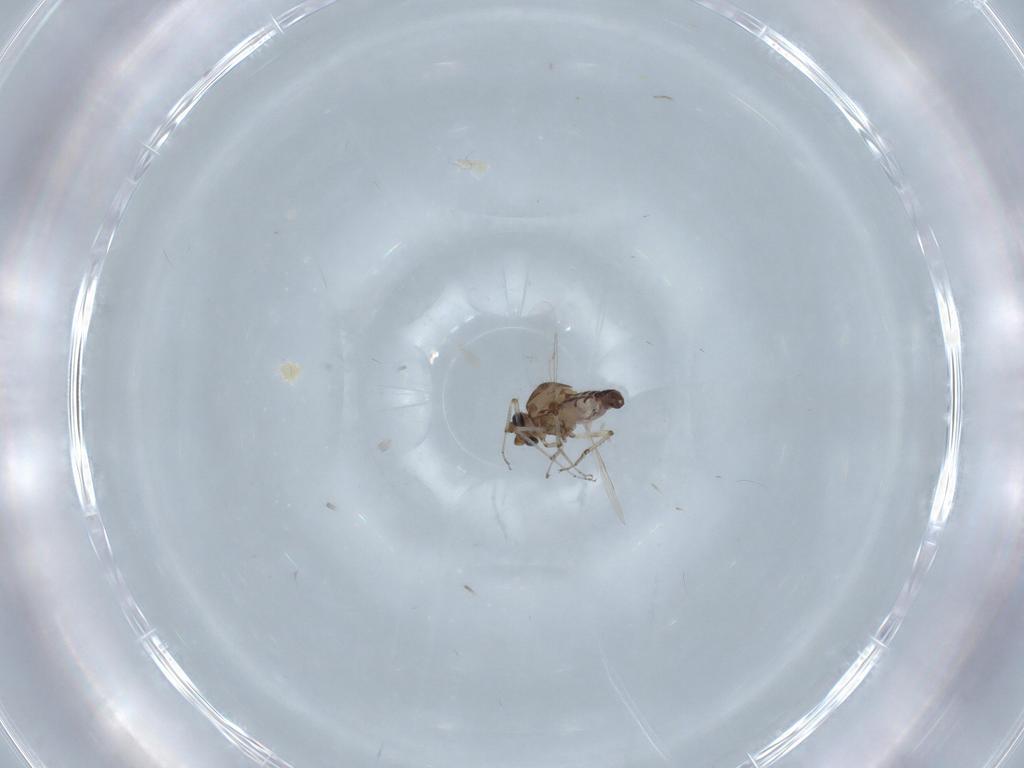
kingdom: Animalia
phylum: Arthropoda
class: Insecta
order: Diptera
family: Ceratopogonidae
